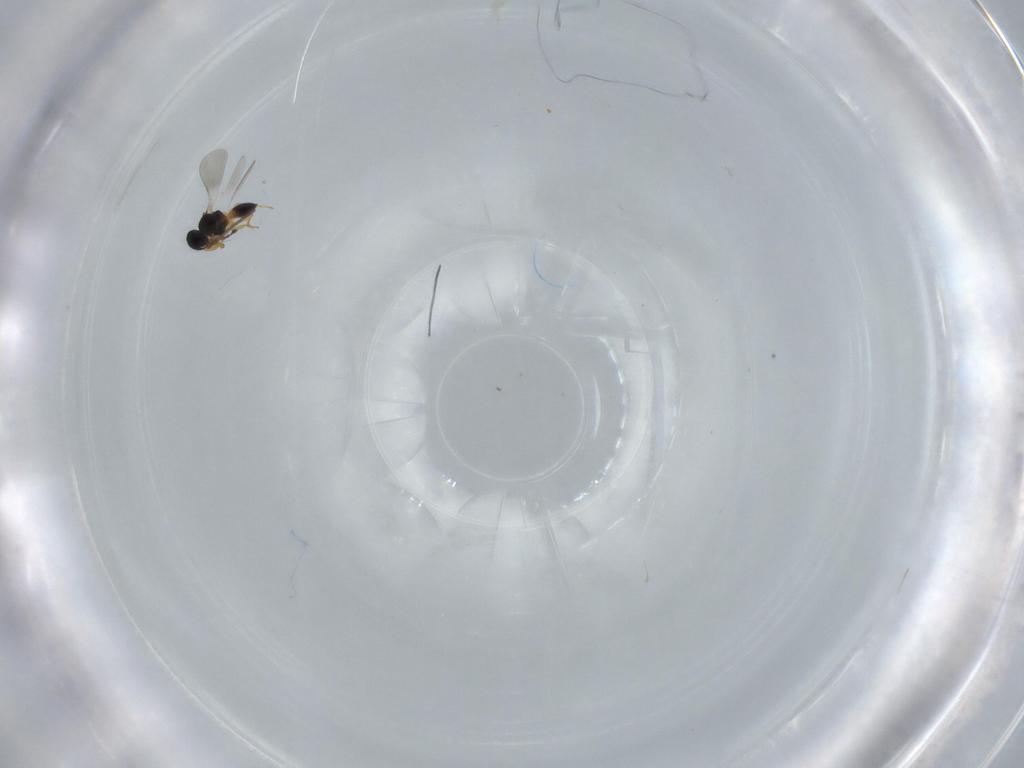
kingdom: Animalia
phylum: Arthropoda
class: Insecta
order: Hymenoptera
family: Platygastridae
